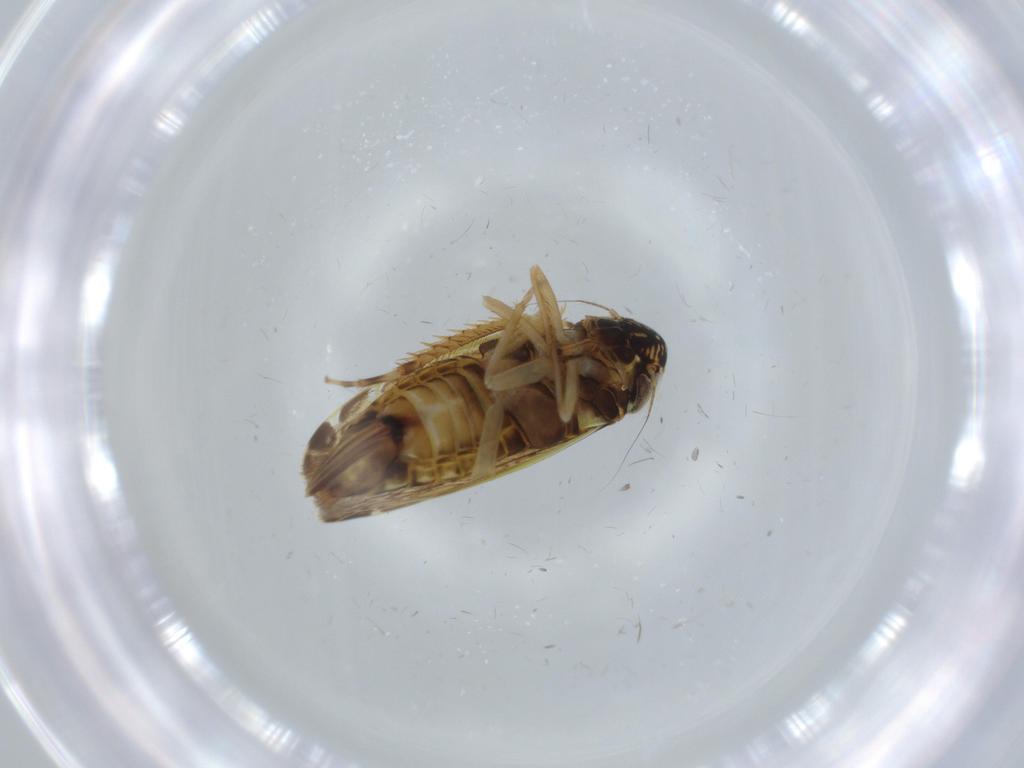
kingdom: Animalia
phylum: Arthropoda
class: Insecta
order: Hemiptera
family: Cicadellidae
